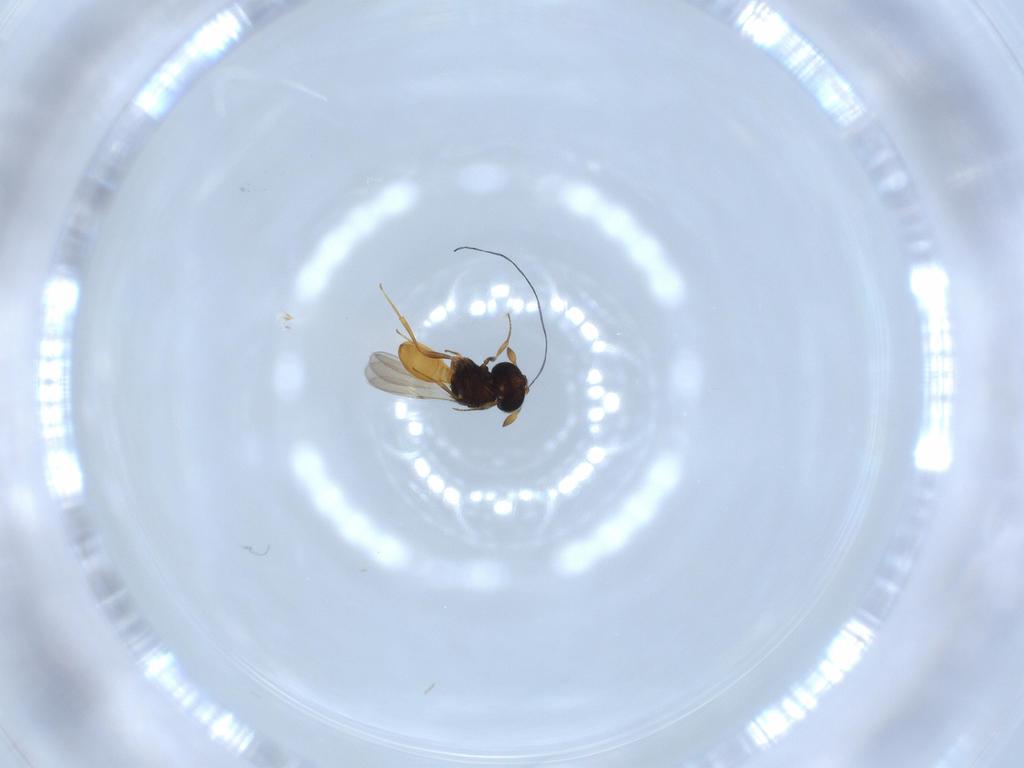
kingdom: Animalia
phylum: Arthropoda
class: Insecta
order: Hymenoptera
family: Scelionidae
